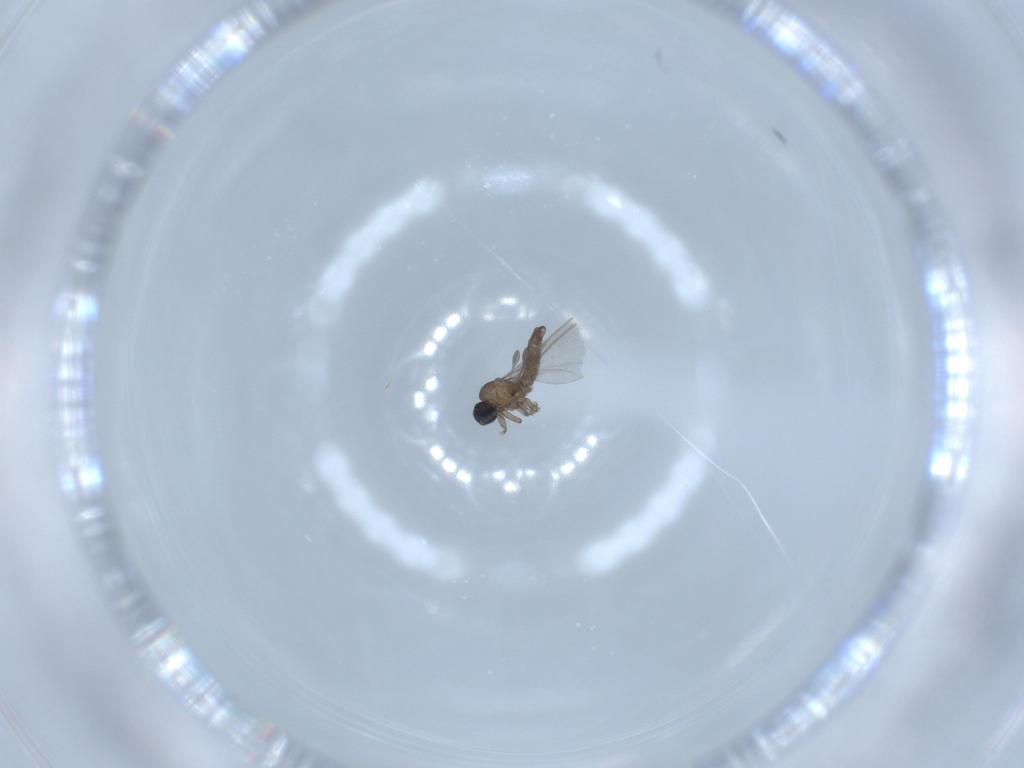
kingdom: Animalia
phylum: Arthropoda
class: Insecta
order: Diptera
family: Sciaridae
